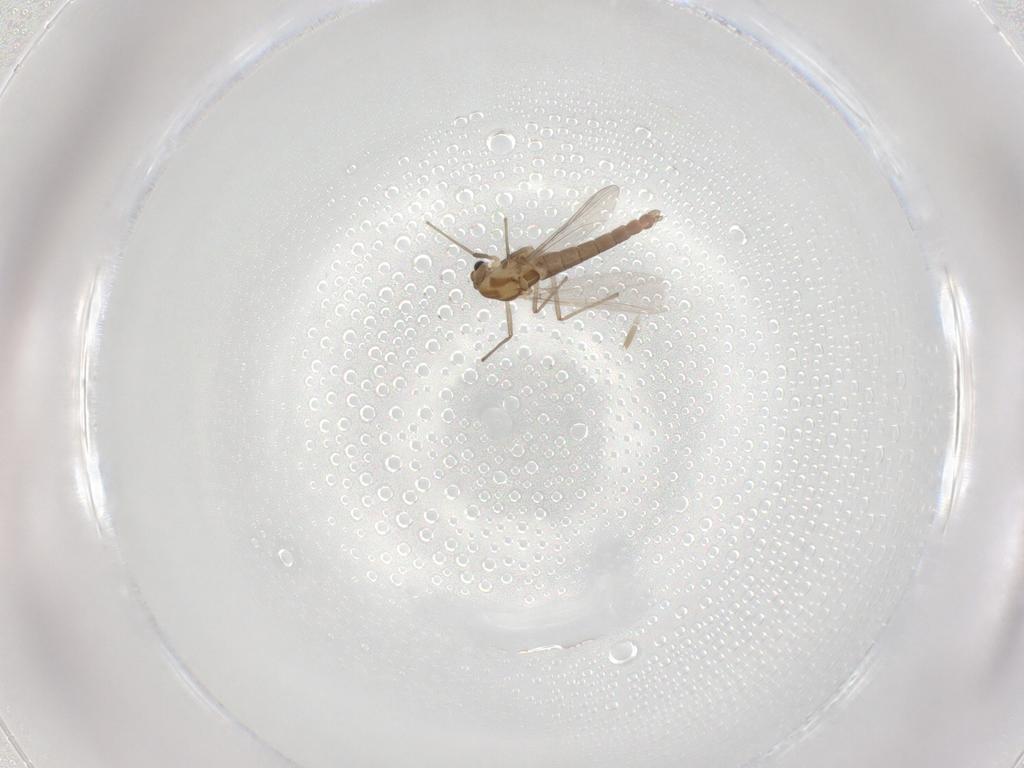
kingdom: Animalia
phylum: Arthropoda
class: Insecta
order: Diptera
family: Chironomidae
